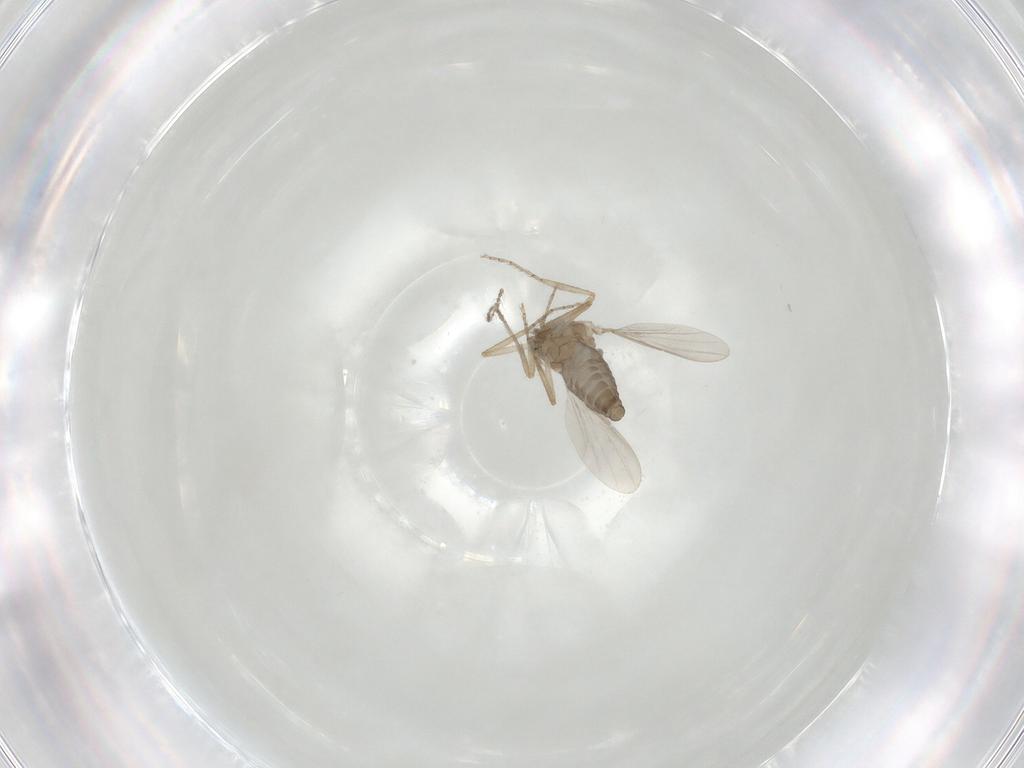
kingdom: Animalia
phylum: Arthropoda
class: Insecta
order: Diptera
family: Ceratopogonidae
